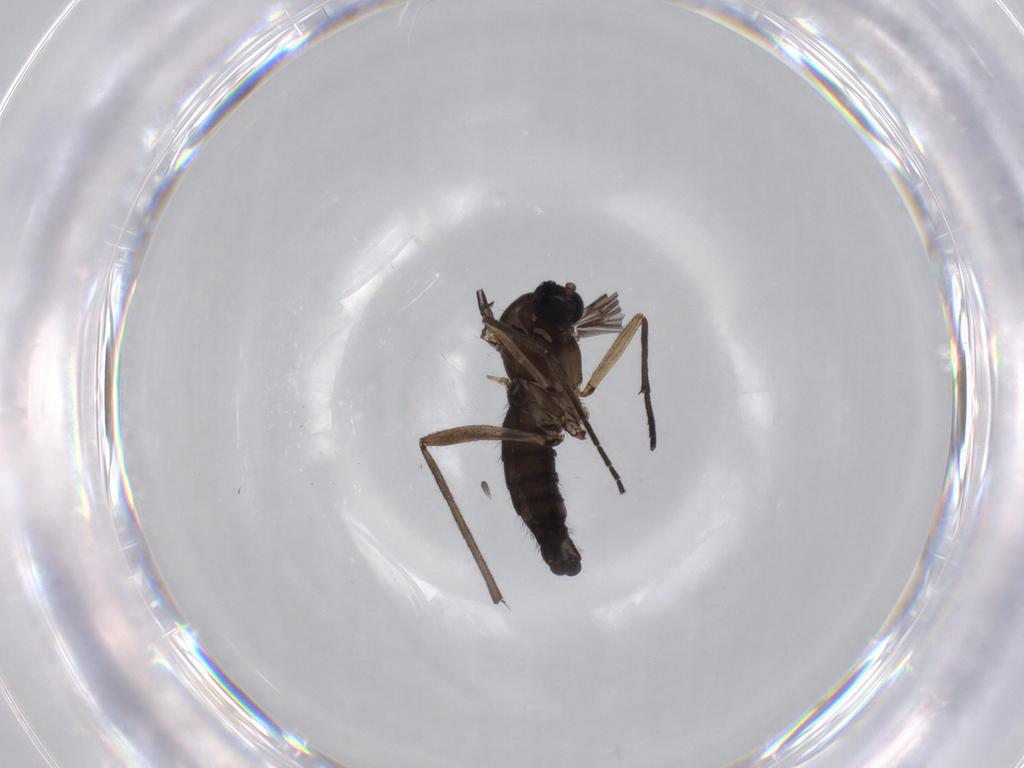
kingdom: Animalia
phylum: Arthropoda
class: Insecta
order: Diptera
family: Sciaridae
